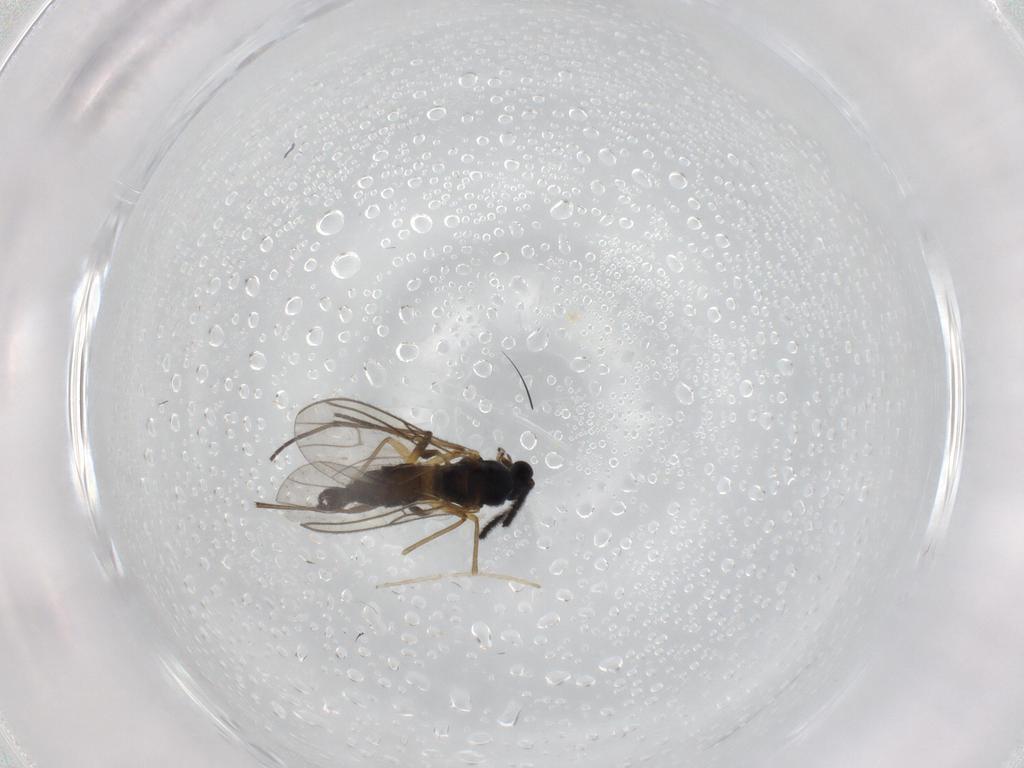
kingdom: Animalia
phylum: Arthropoda
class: Insecta
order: Diptera
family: Sciaridae
